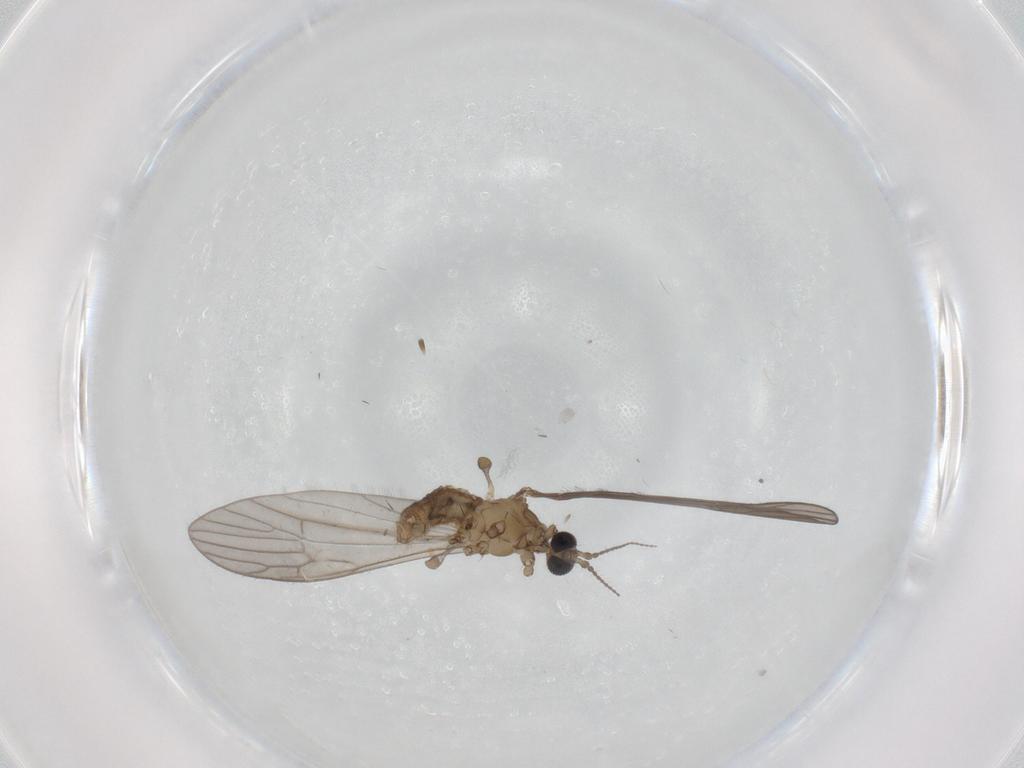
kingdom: Animalia
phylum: Arthropoda
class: Insecta
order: Diptera
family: Limoniidae
